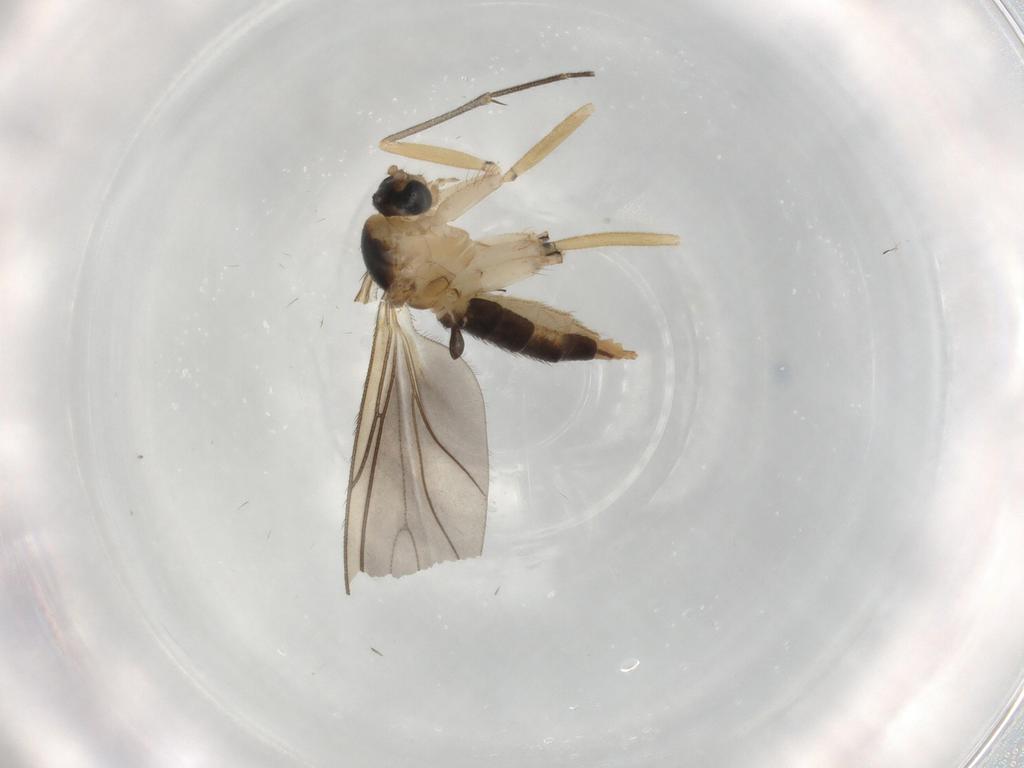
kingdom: Animalia
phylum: Arthropoda
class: Insecta
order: Diptera
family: Sciaridae
